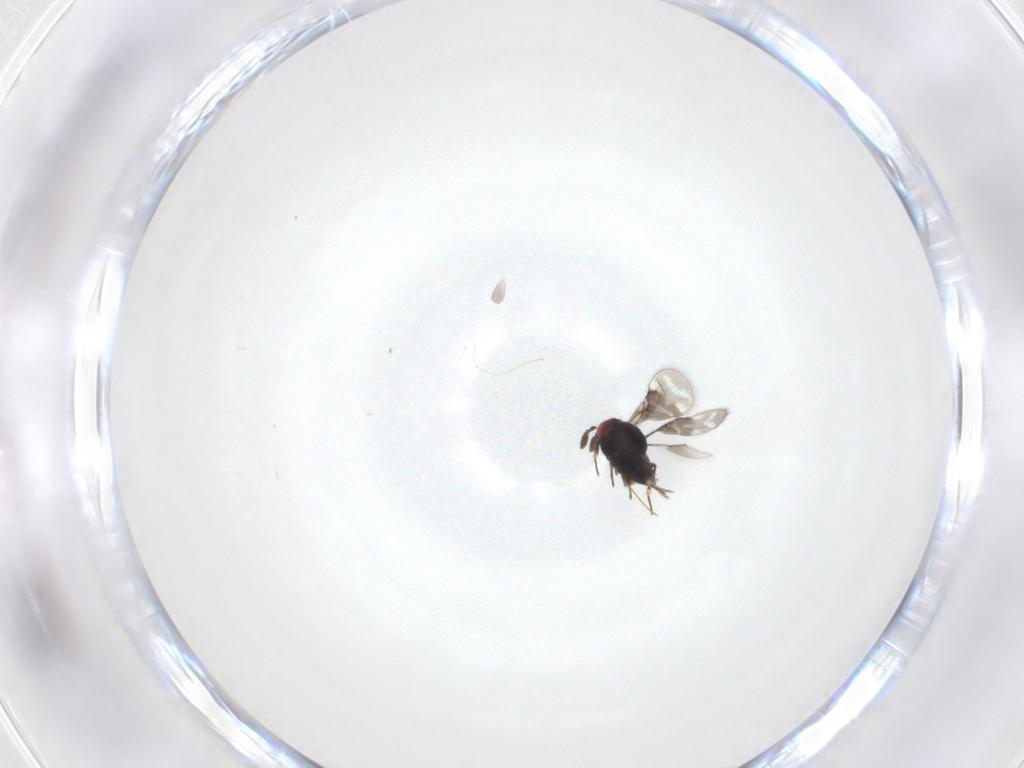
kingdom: Animalia
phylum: Arthropoda
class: Insecta
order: Hymenoptera
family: Eulophidae
